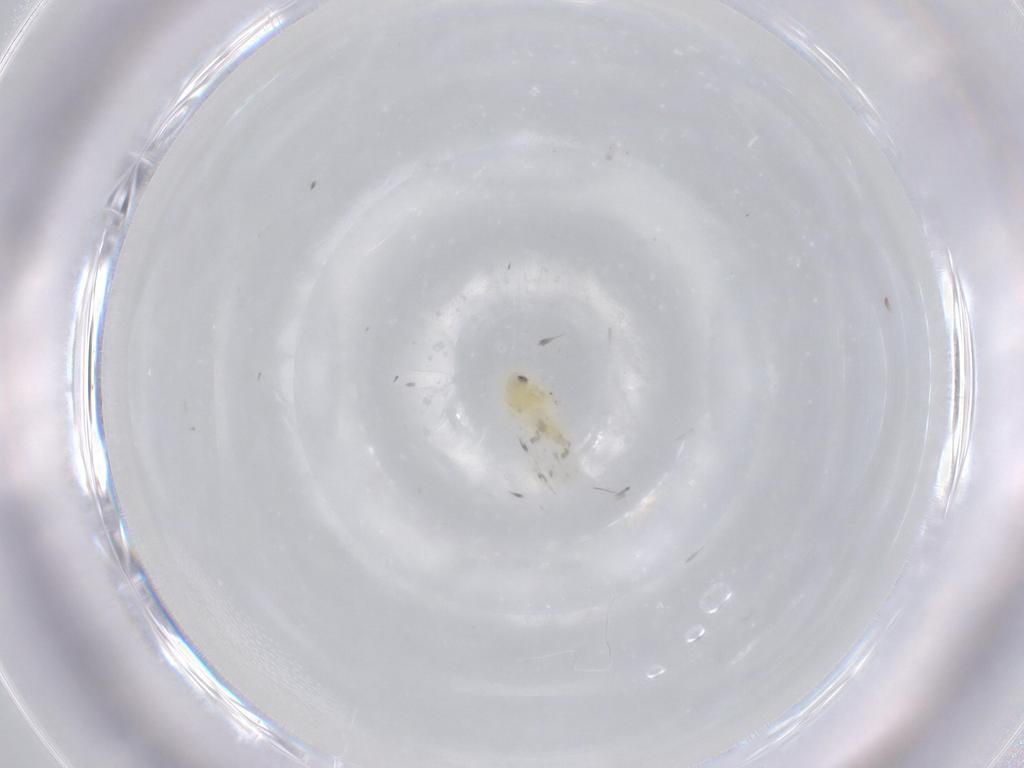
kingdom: Animalia
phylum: Arthropoda
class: Insecta
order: Hemiptera
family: Aleyrodidae
